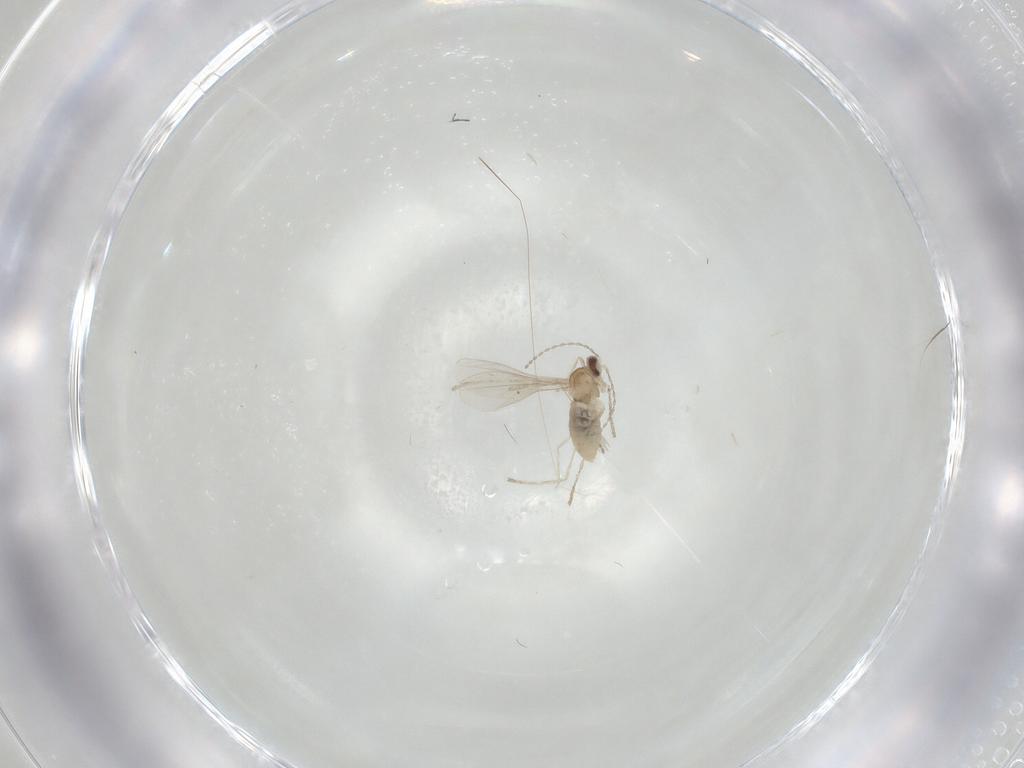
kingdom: Animalia
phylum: Arthropoda
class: Insecta
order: Diptera
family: Cecidomyiidae
